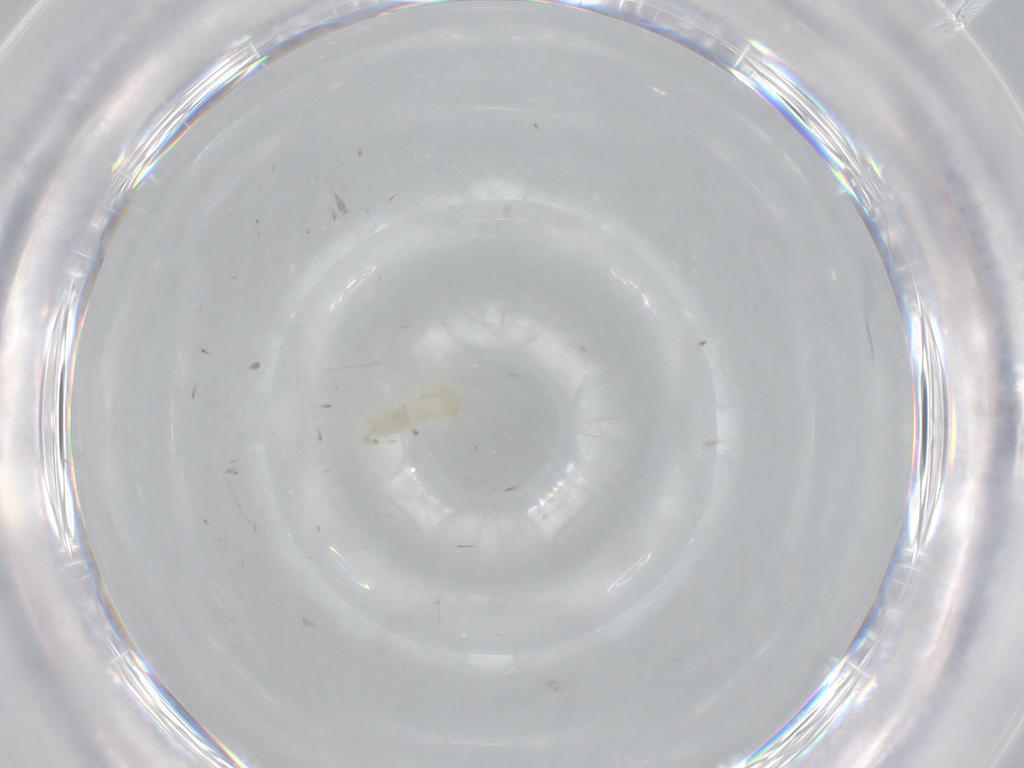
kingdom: Animalia
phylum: Arthropoda
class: Insecta
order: Diptera
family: Cecidomyiidae
